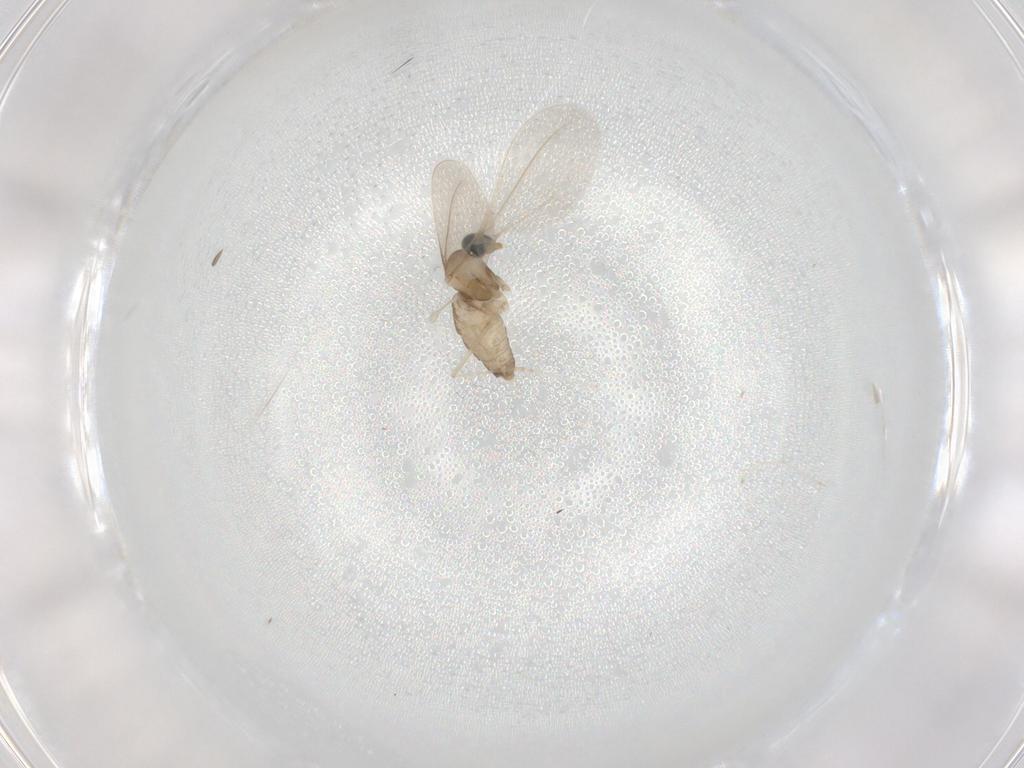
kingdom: Animalia
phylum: Arthropoda
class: Insecta
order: Diptera
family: Cecidomyiidae
